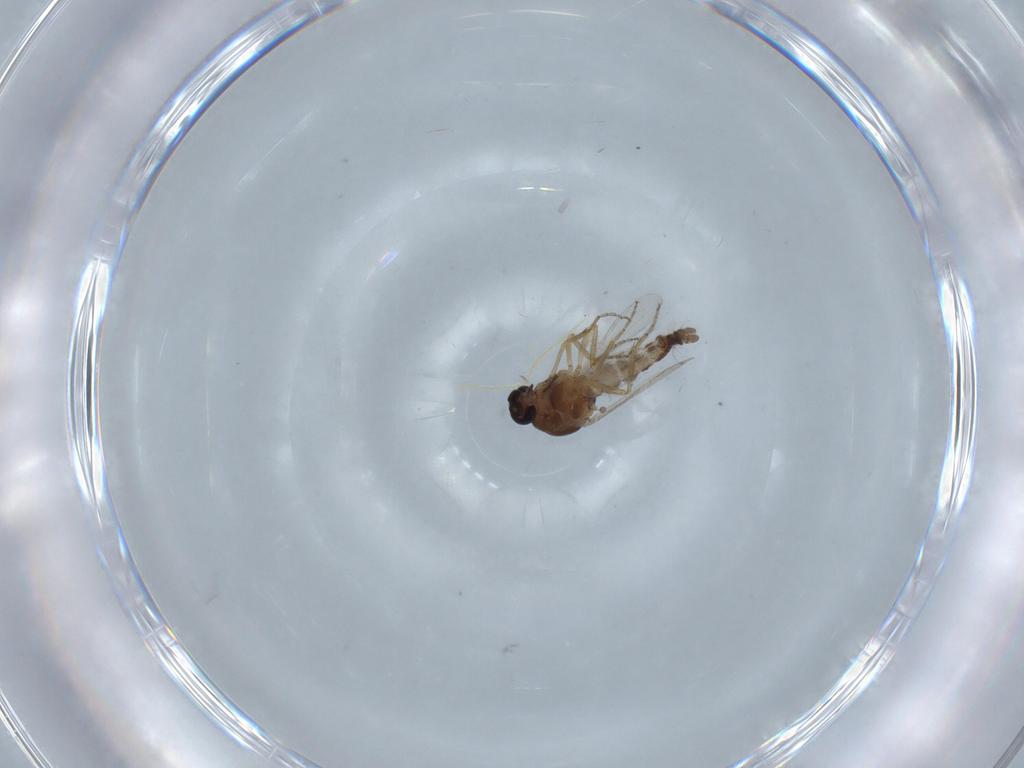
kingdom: Animalia
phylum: Arthropoda
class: Insecta
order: Diptera
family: Ceratopogonidae
